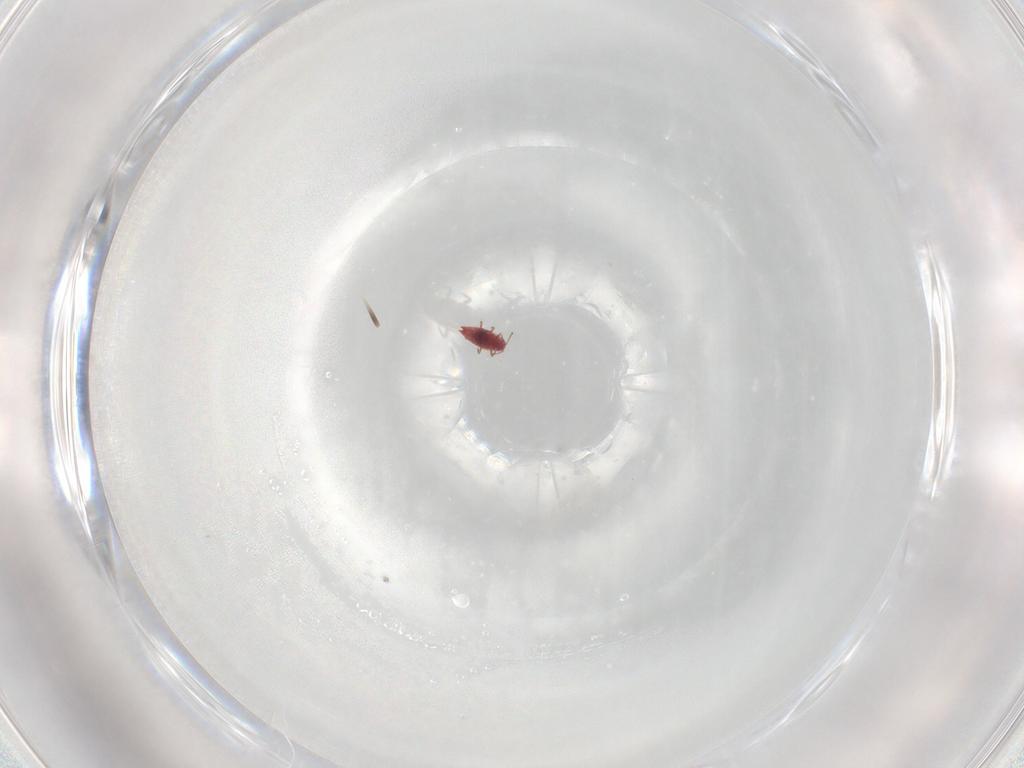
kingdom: Animalia
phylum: Arthropoda
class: Insecta
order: Hemiptera
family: Coccoidea_incertae_sedis
